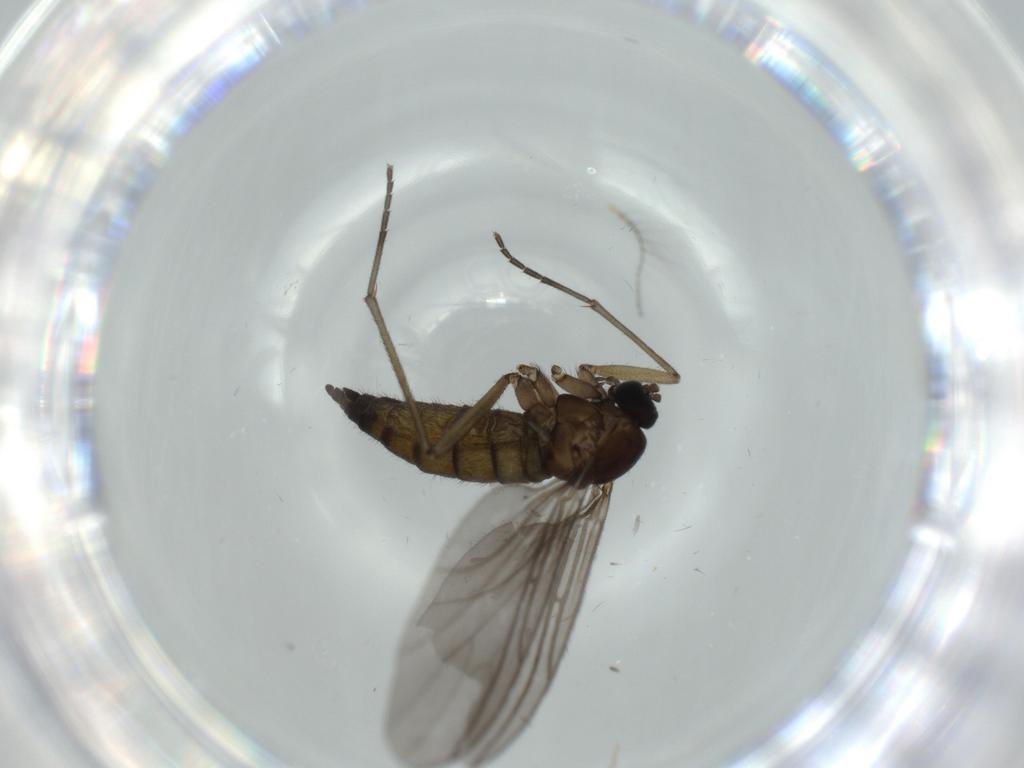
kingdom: Animalia
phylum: Arthropoda
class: Insecta
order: Diptera
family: Sciaridae
